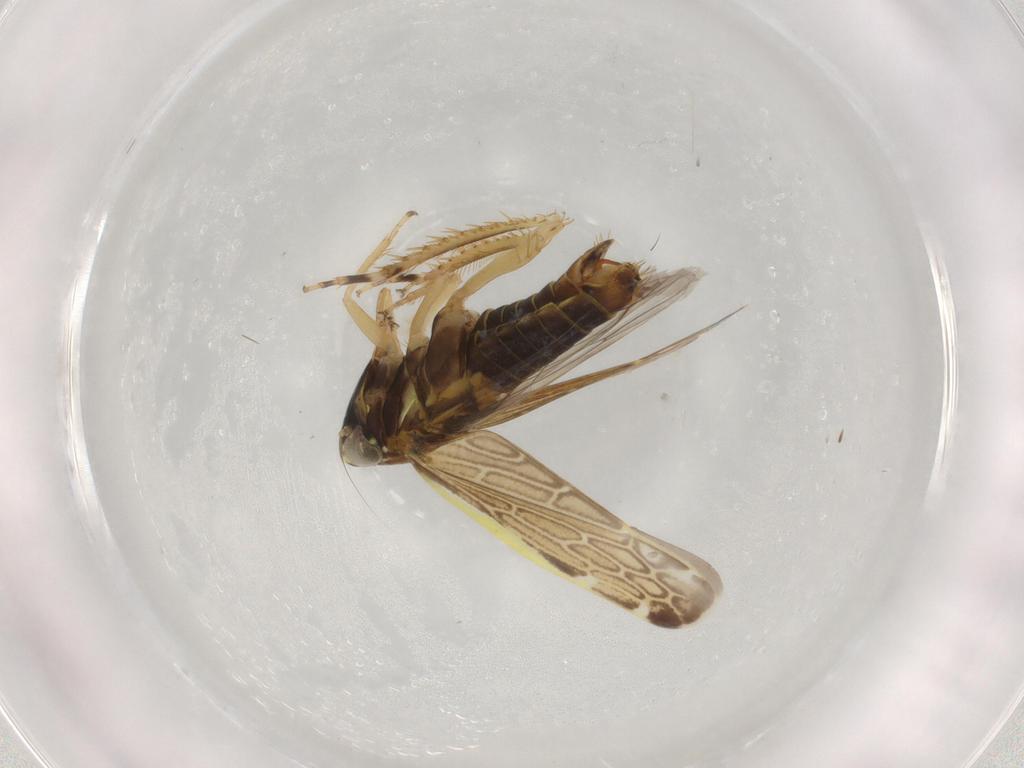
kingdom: Animalia
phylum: Arthropoda
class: Insecta
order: Hemiptera
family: Cicadellidae
